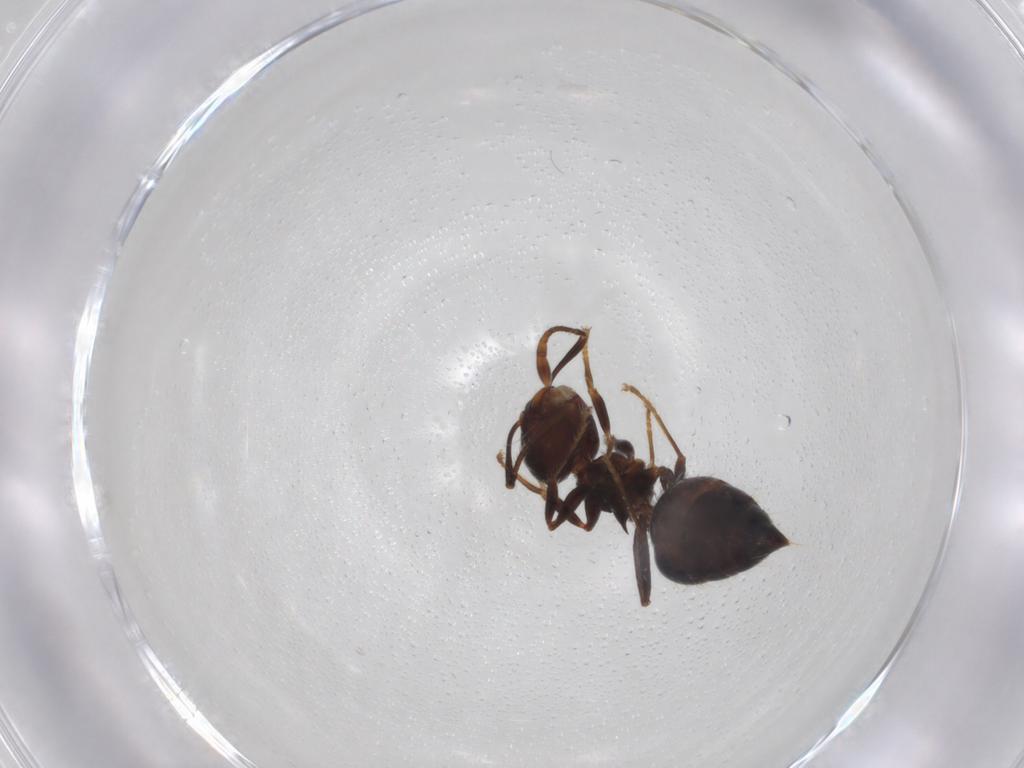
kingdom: Animalia
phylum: Arthropoda
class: Insecta
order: Hymenoptera
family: Formicidae
